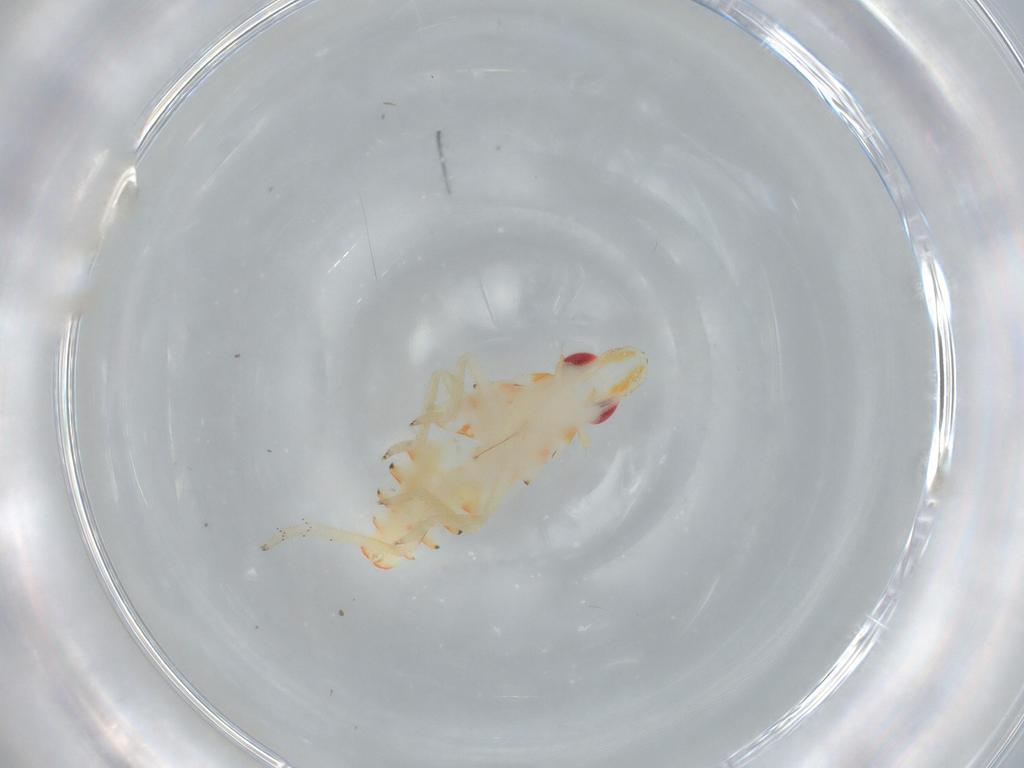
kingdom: Animalia
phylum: Arthropoda
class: Insecta
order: Hemiptera
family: Tropiduchidae
